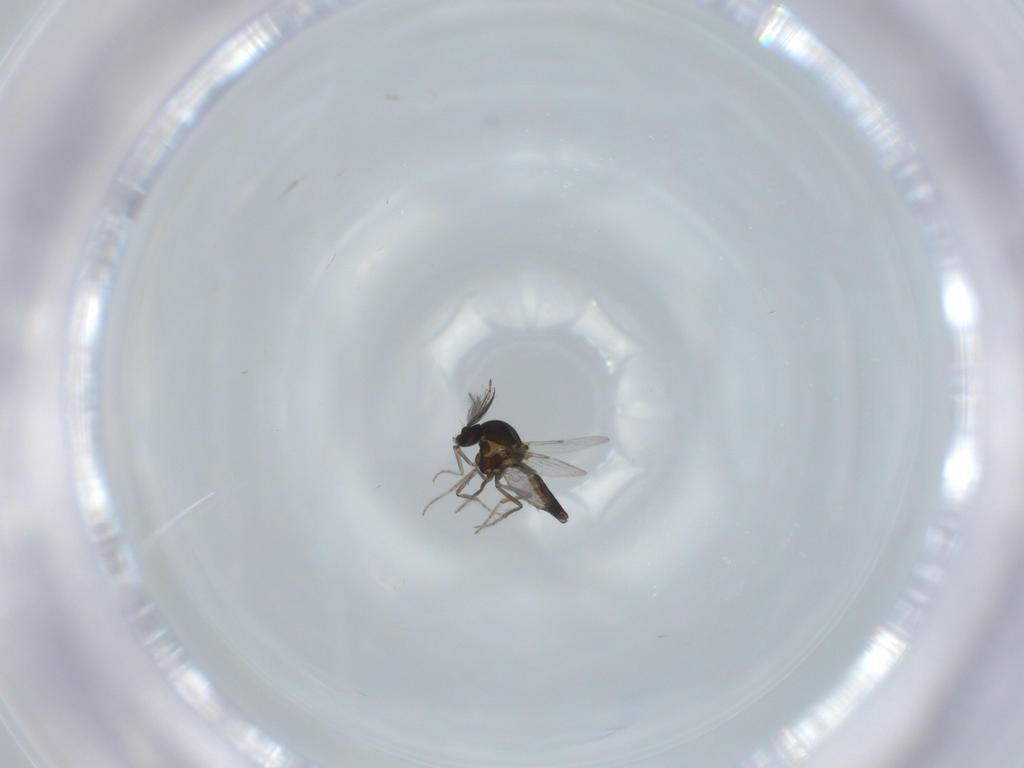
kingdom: Animalia
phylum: Arthropoda
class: Insecta
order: Diptera
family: Ceratopogonidae
